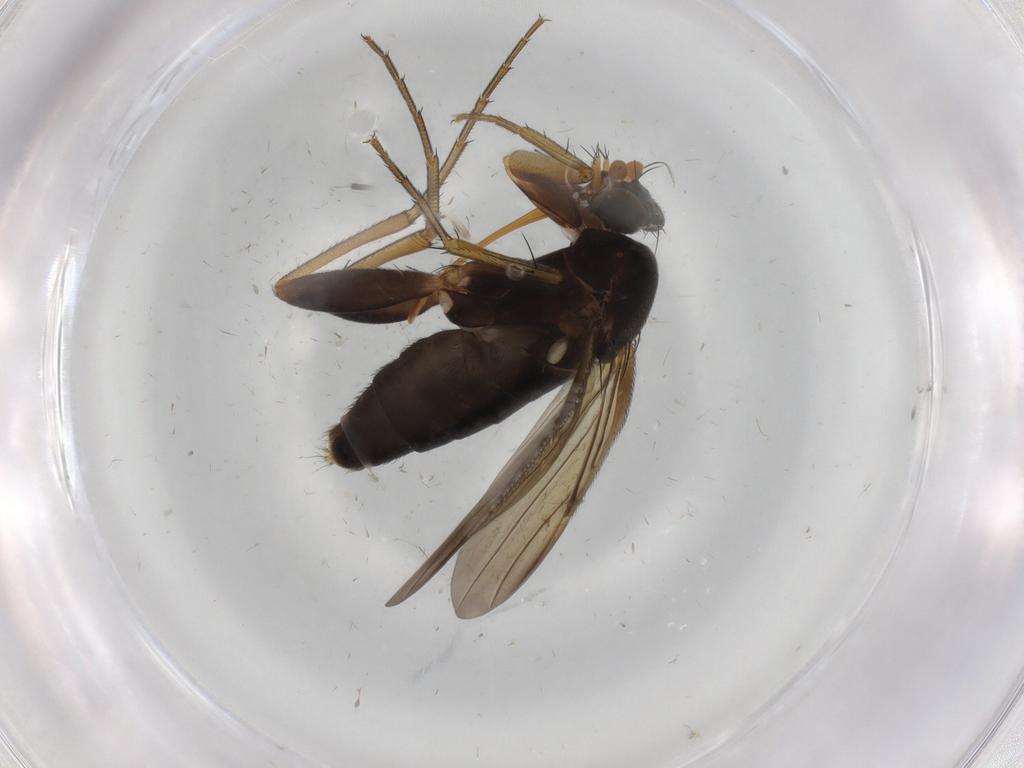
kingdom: Animalia
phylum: Arthropoda
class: Insecta
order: Diptera
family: Phoridae
